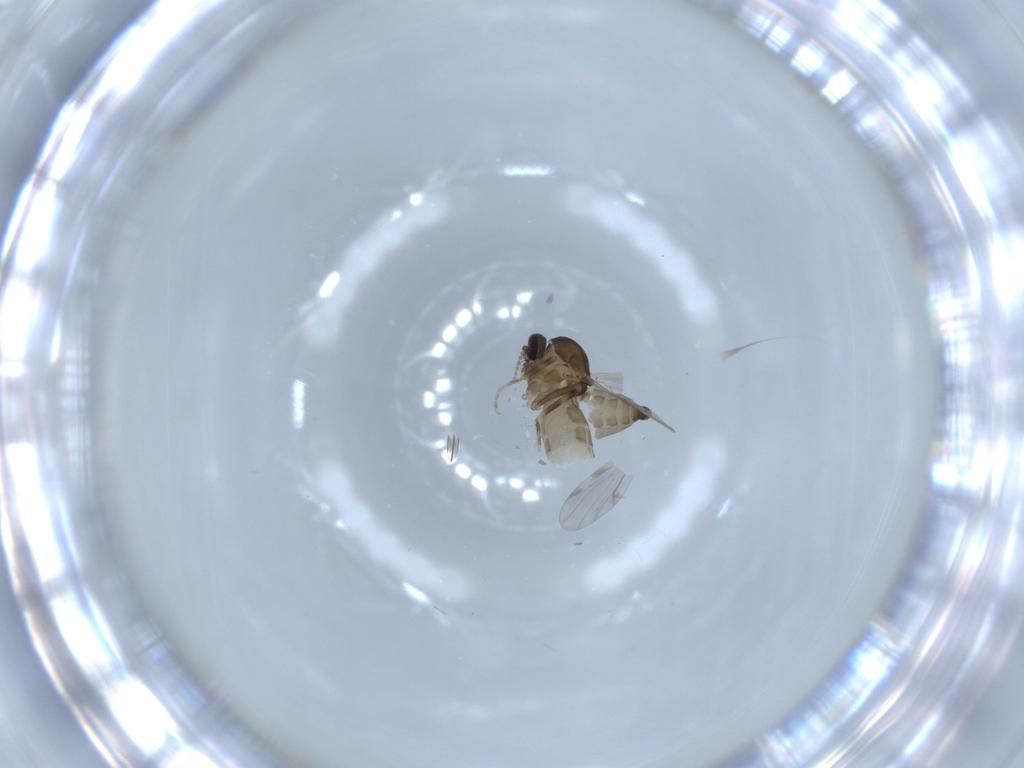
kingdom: Animalia
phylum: Arthropoda
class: Insecta
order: Diptera
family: Ceratopogonidae
